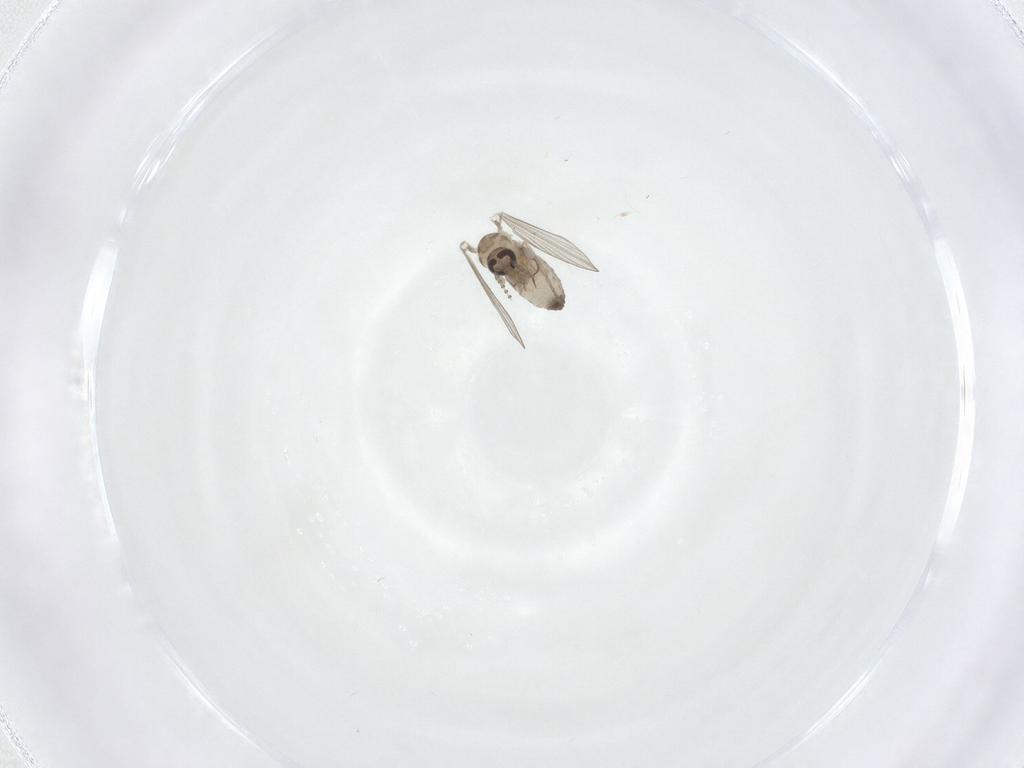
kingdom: Animalia
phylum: Arthropoda
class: Insecta
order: Diptera
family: Psychodidae
